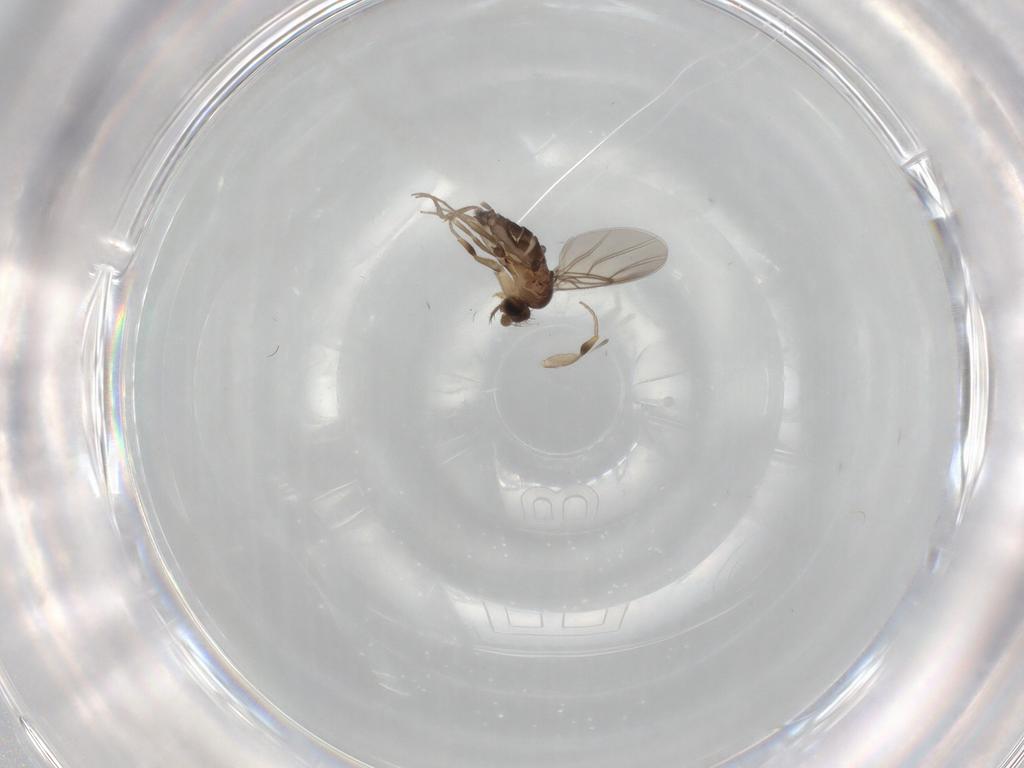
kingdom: Animalia
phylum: Arthropoda
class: Insecta
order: Diptera
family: Phoridae
